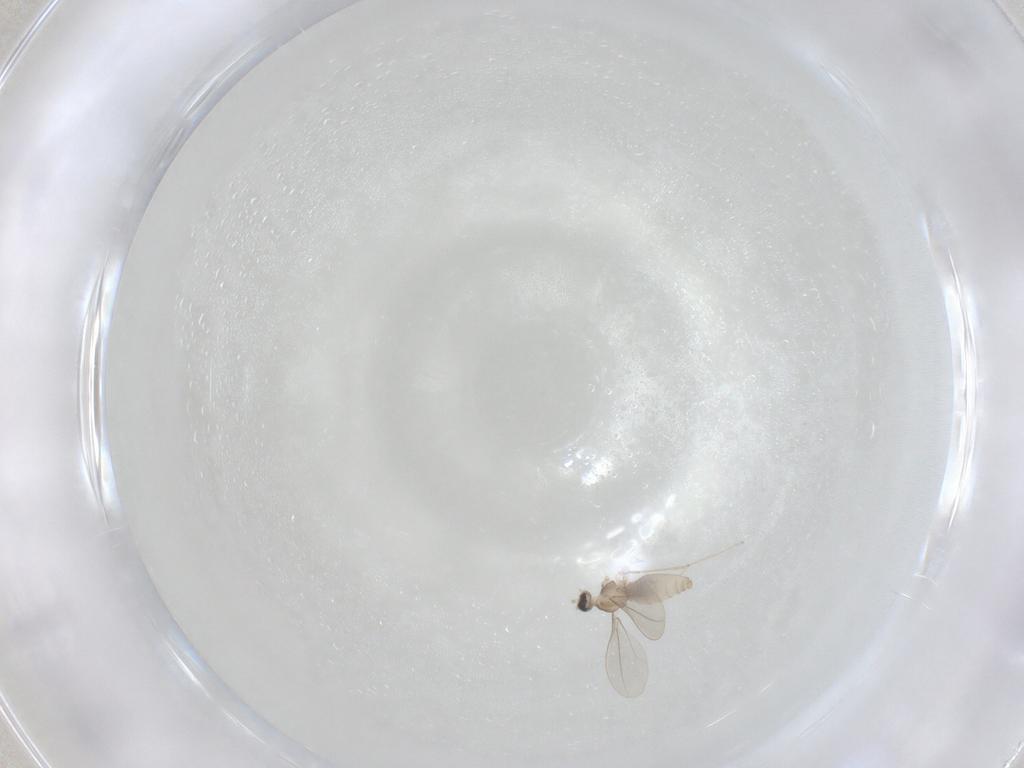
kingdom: Animalia
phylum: Arthropoda
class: Insecta
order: Diptera
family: Cecidomyiidae
